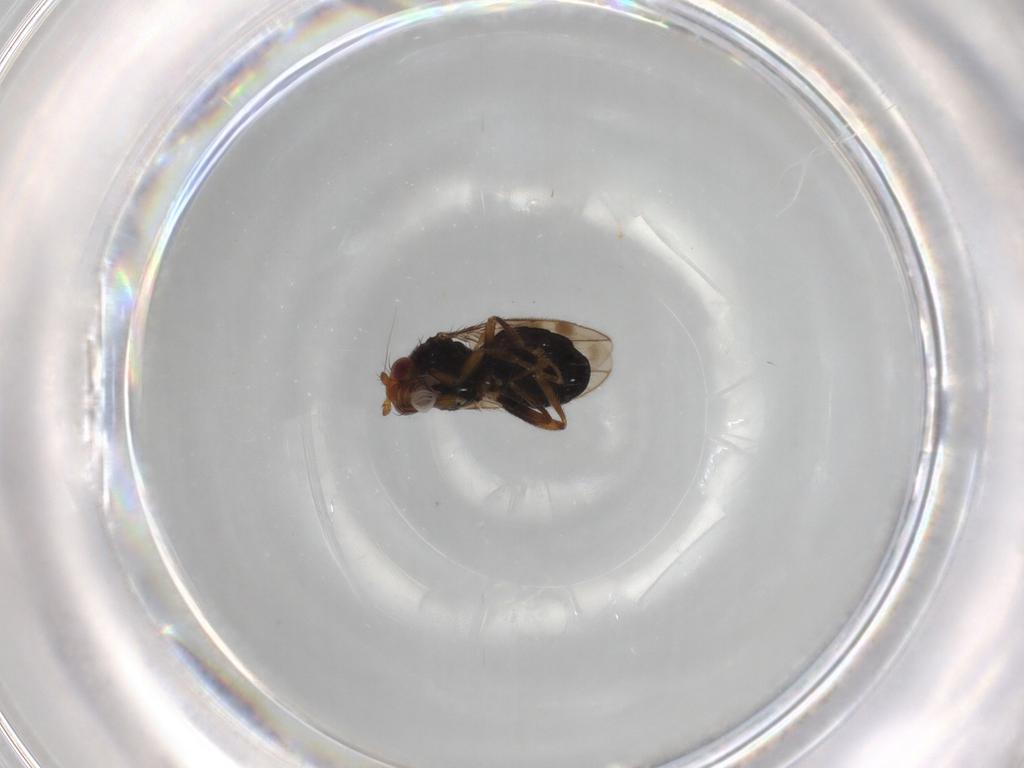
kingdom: Animalia
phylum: Arthropoda
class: Insecta
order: Diptera
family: Sphaeroceridae
